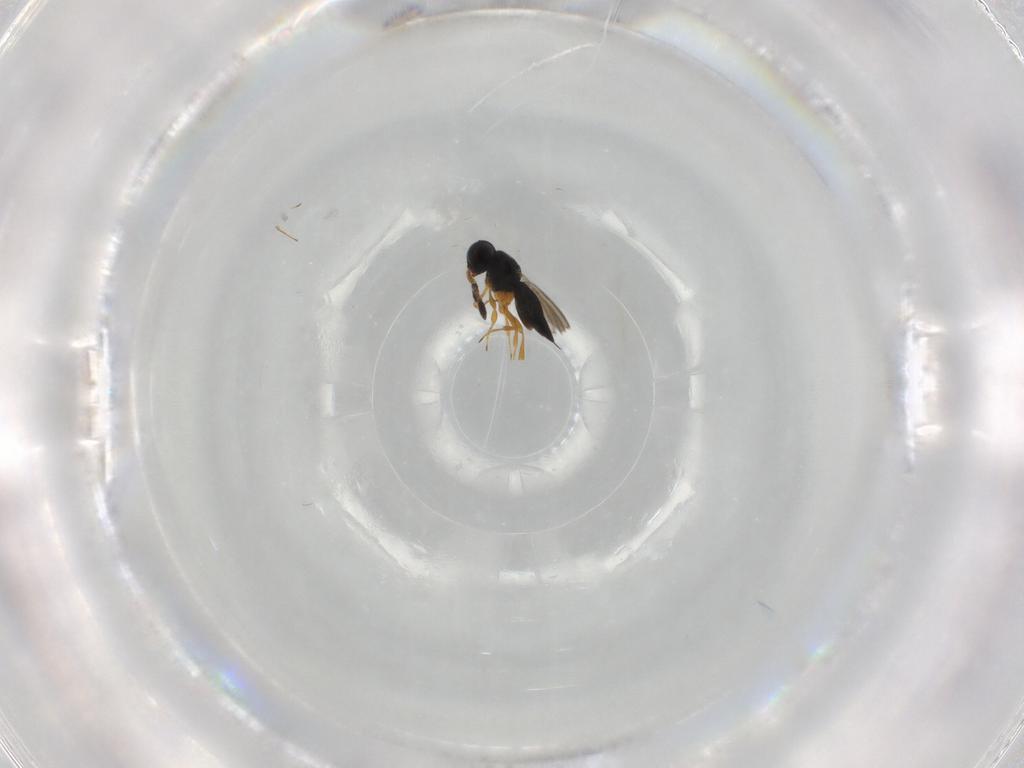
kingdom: Animalia
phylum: Arthropoda
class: Insecta
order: Hymenoptera
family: Scelionidae
